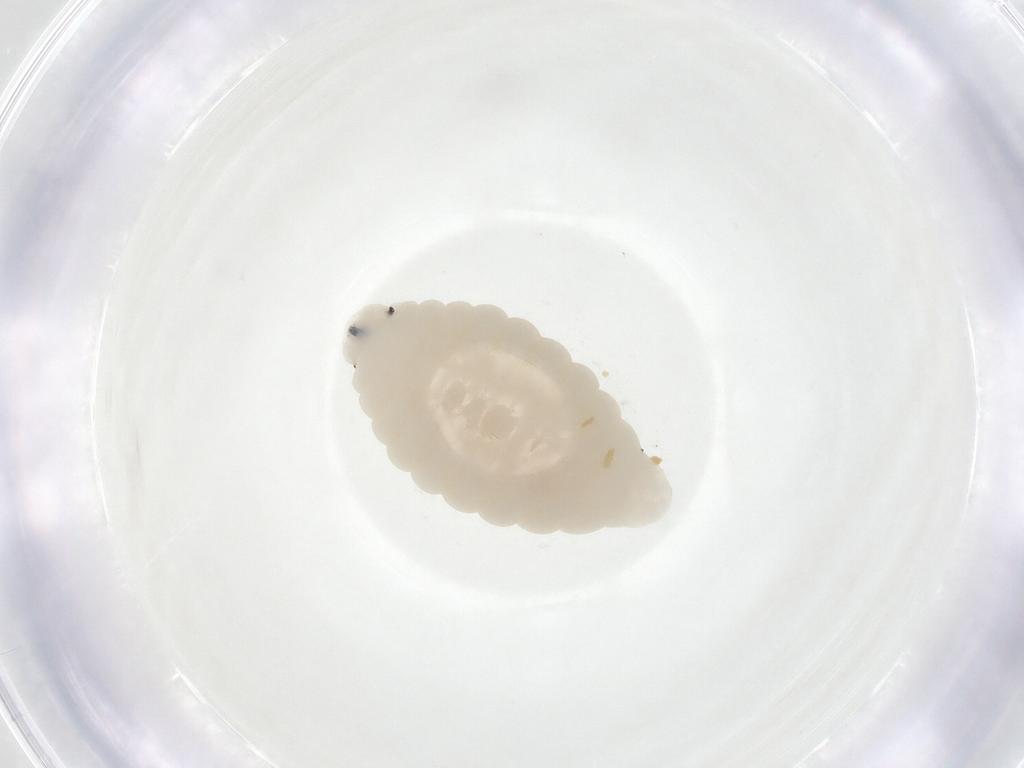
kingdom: Animalia
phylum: Arthropoda
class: Insecta
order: Diptera
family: Fergusoninidae
